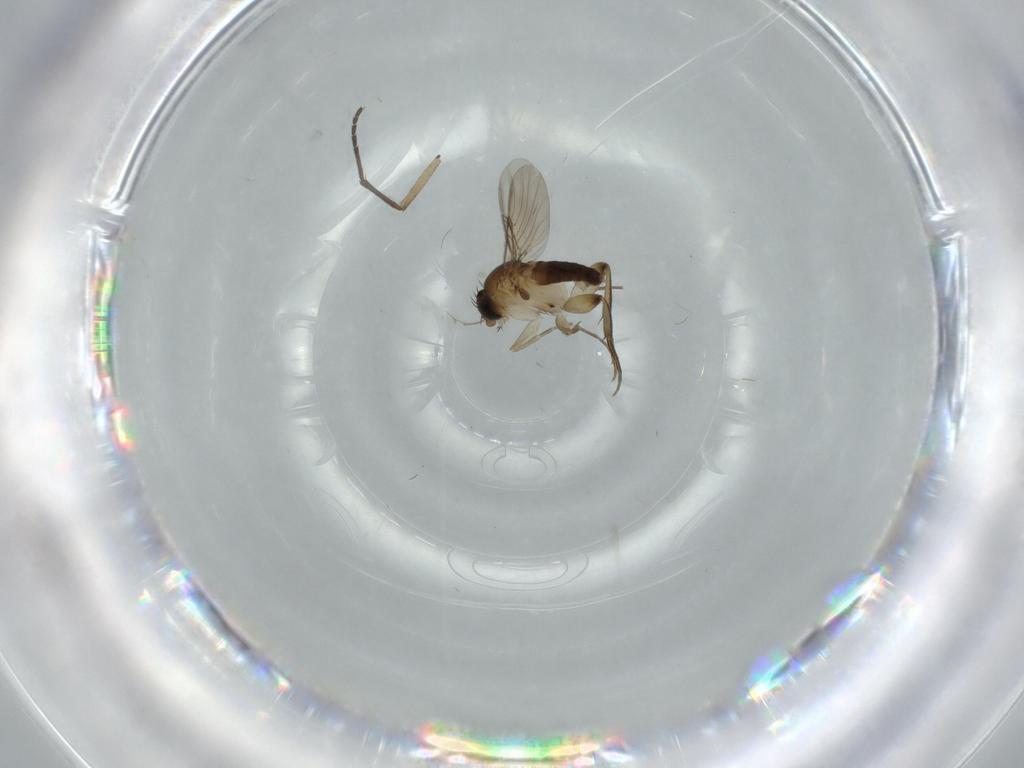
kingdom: Animalia
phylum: Arthropoda
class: Insecta
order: Diptera
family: Phoridae
